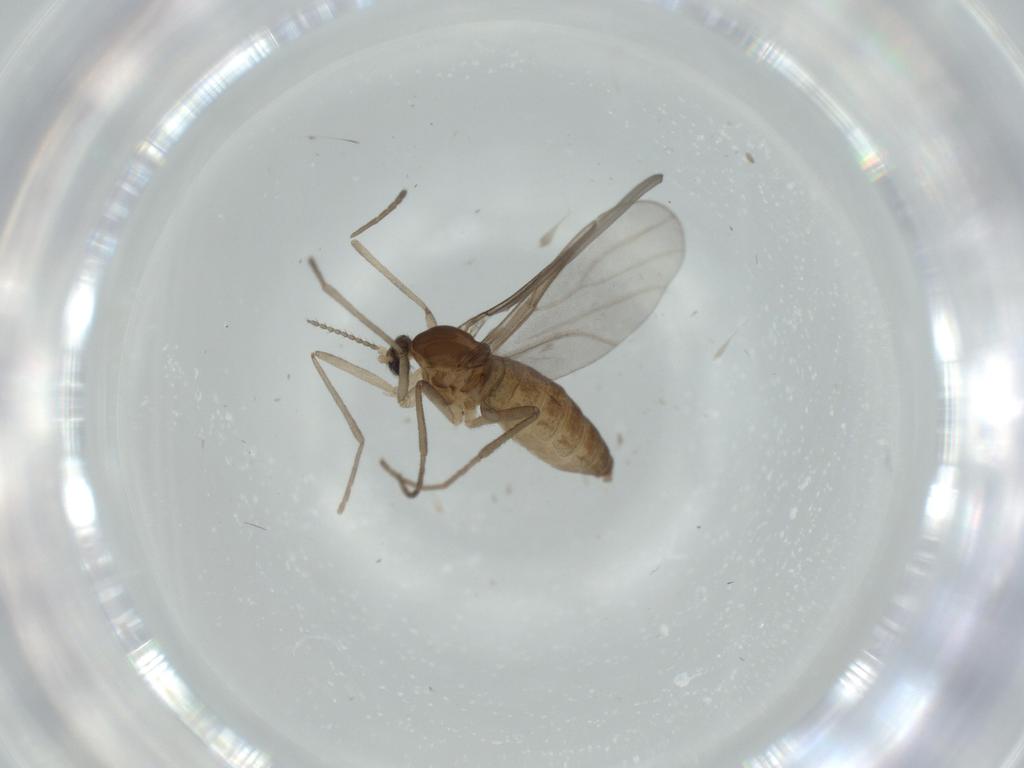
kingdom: Animalia
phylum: Arthropoda
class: Insecta
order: Diptera
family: Cecidomyiidae
